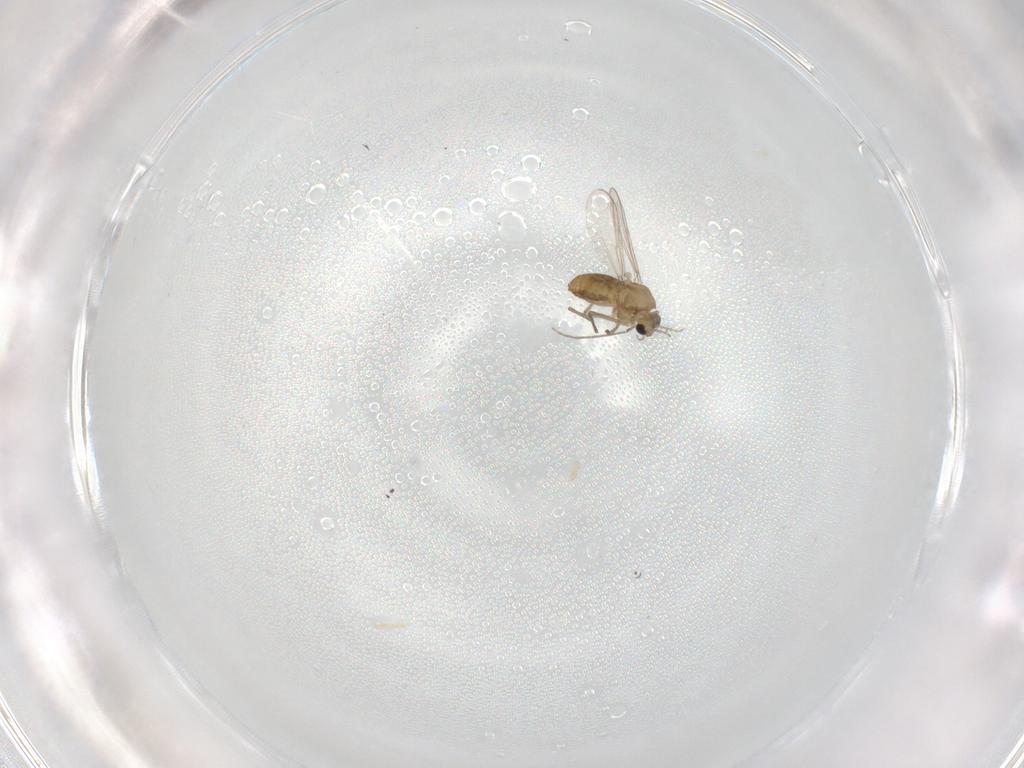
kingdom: Animalia
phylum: Arthropoda
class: Insecta
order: Diptera
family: Chironomidae
